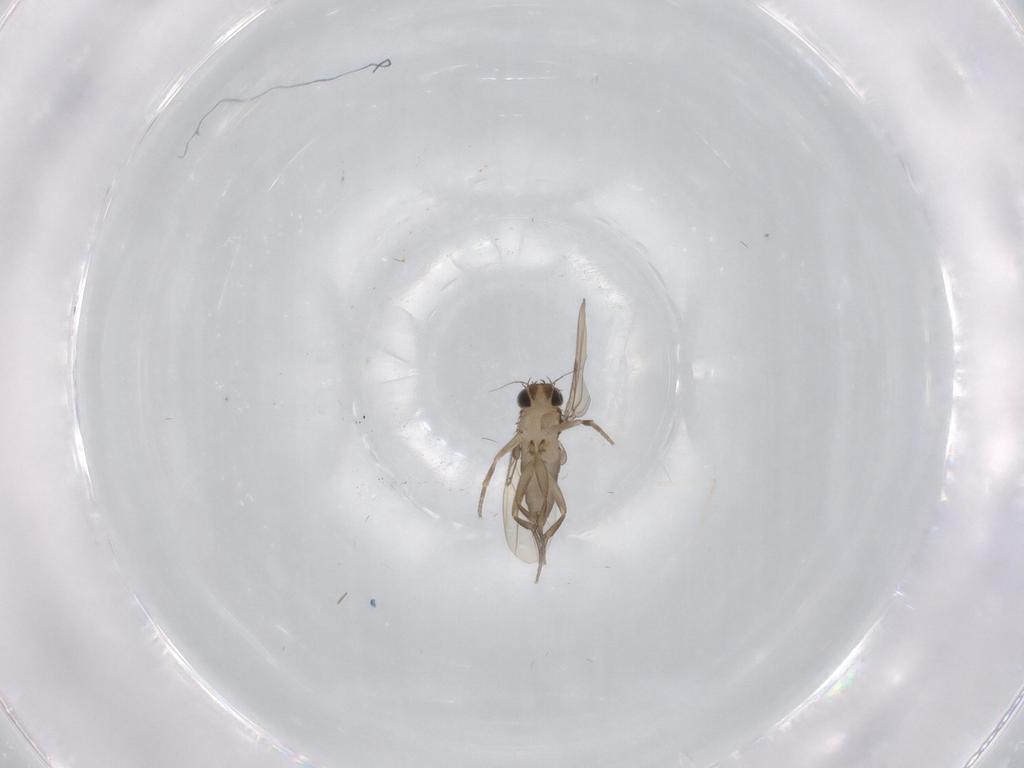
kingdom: Animalia
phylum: Arthropoda
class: Insecta
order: Diptera
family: Phoridae
